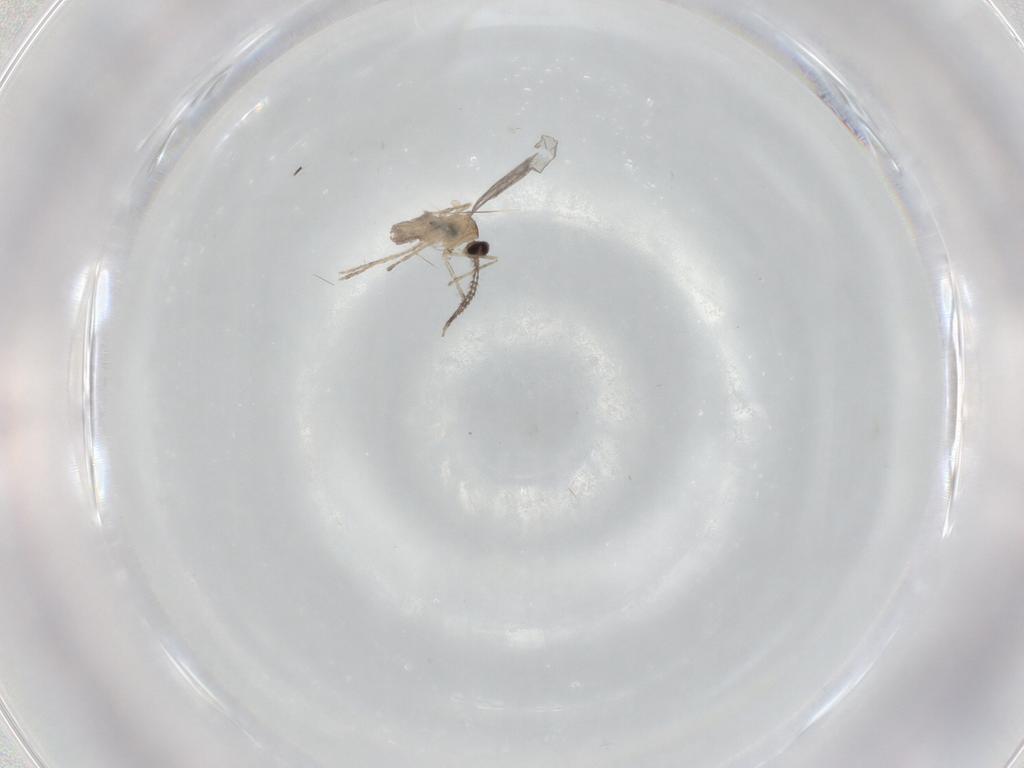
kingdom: Animalia
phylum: Arthropoda
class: Insecta
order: Diptera
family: Cecidomyiidae
